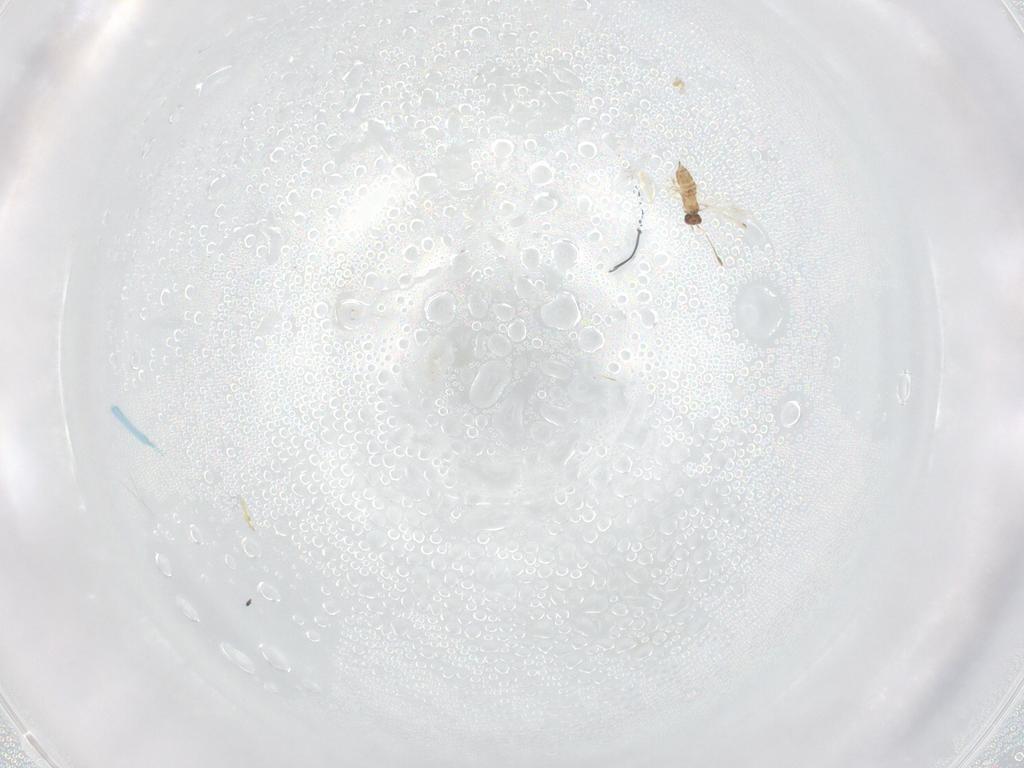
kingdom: Animalia
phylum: Arthropoda
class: Insecta
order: Hymenoptera
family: Mymaridae
